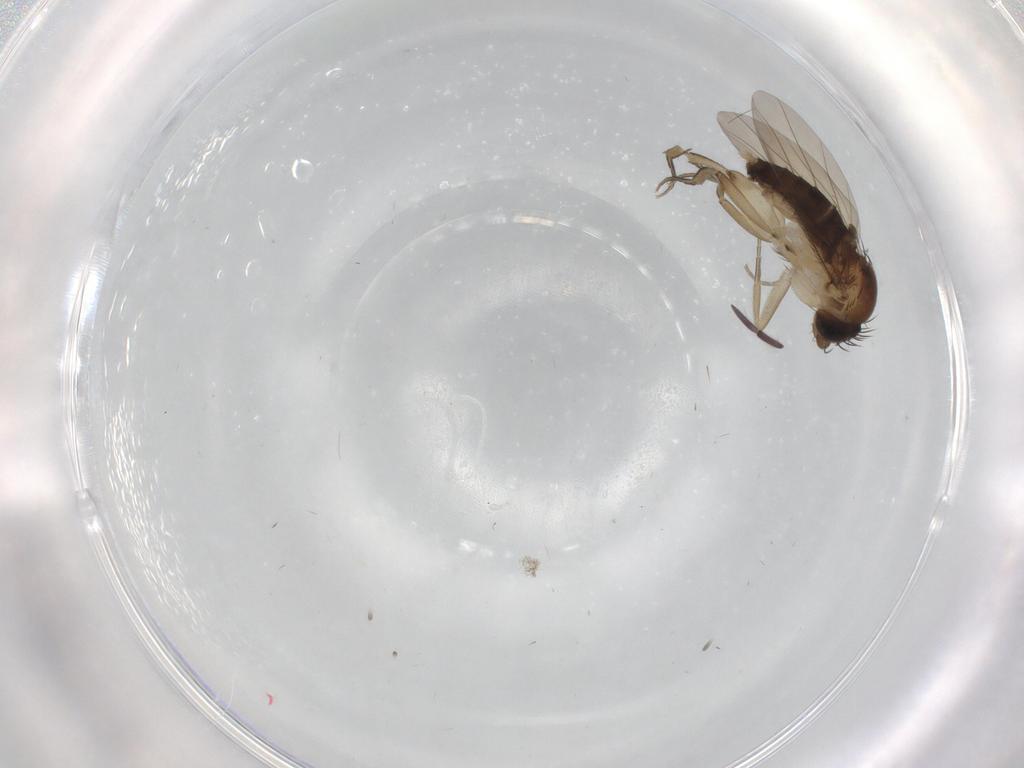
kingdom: Animalia
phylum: Arthropoda
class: Insecta
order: Diptera
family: Phoridae
